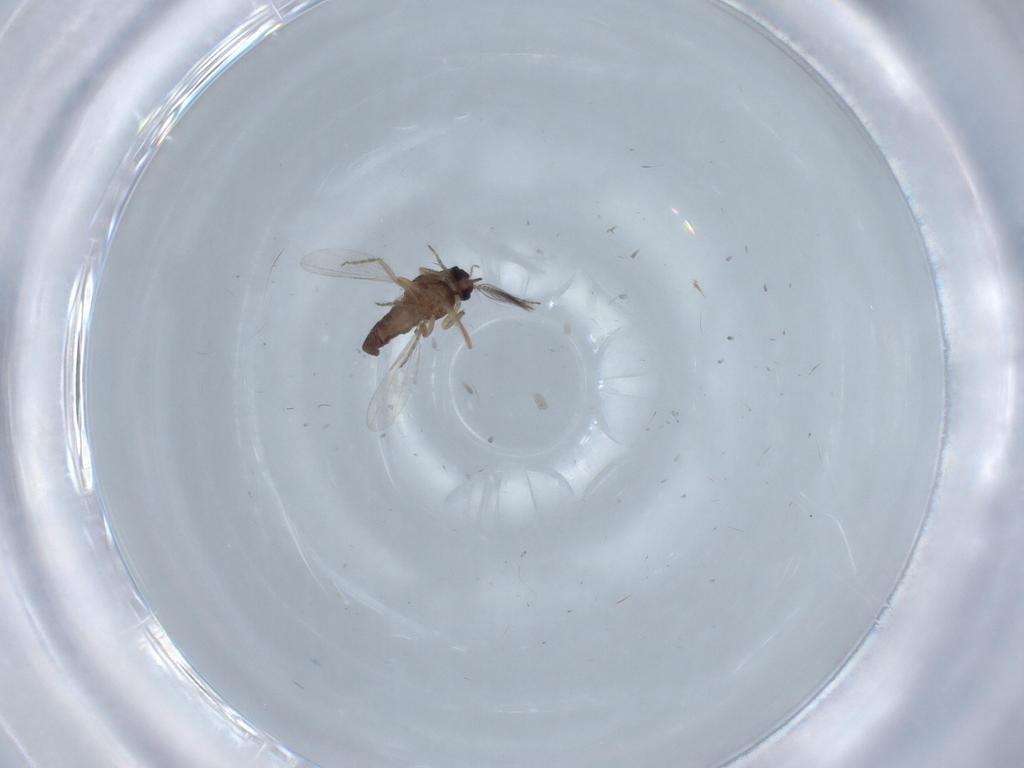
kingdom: Animalia
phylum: Arthropoda
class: Insecta
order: Diptera
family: Ceratopogonidae
